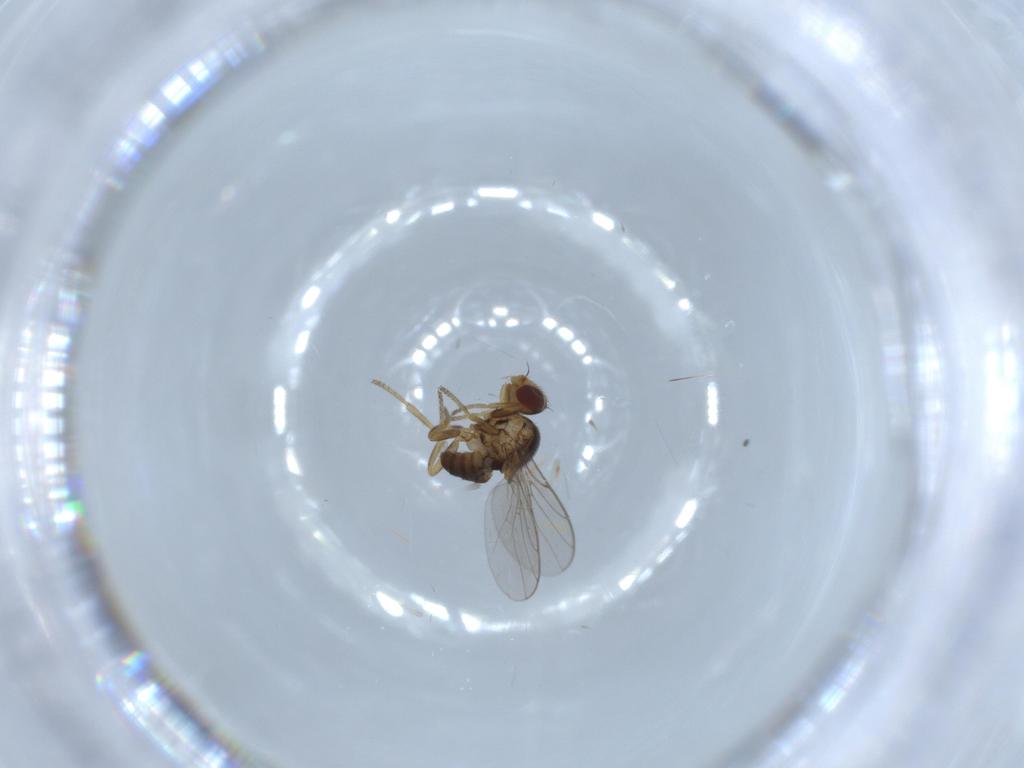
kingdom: Animalia
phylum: Arthropoda
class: Insecta
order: Diptera
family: Chloropidae
